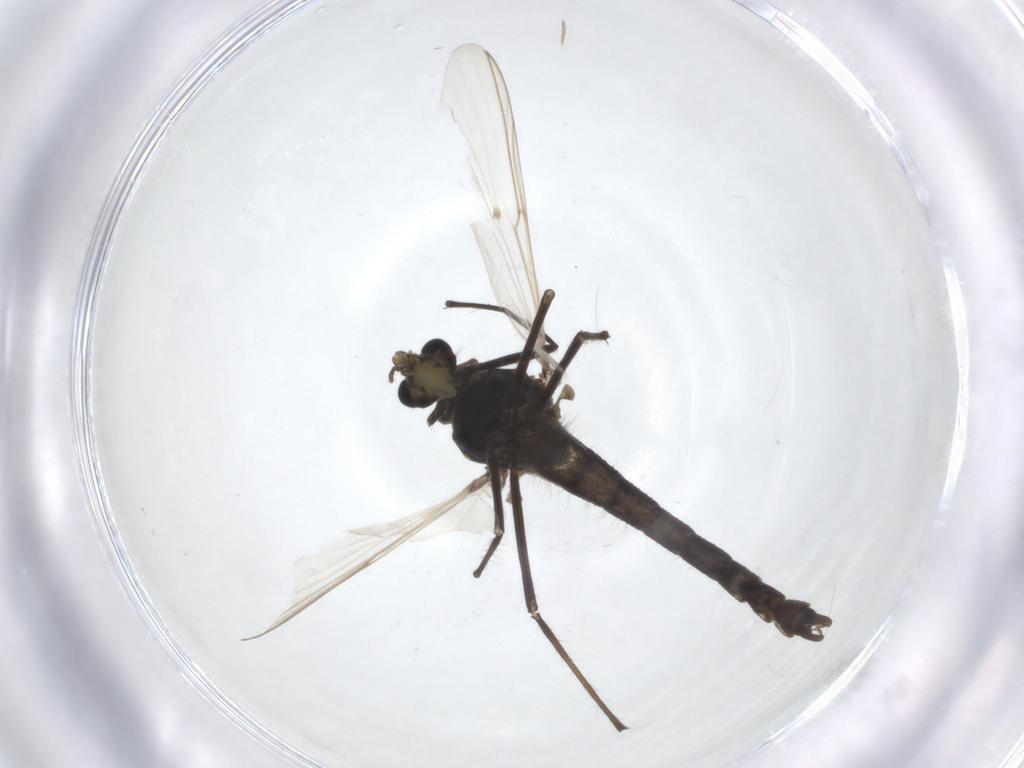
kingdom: Animalia
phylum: Arthropoda
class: Insecta
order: Diptera
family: Chironomidae
